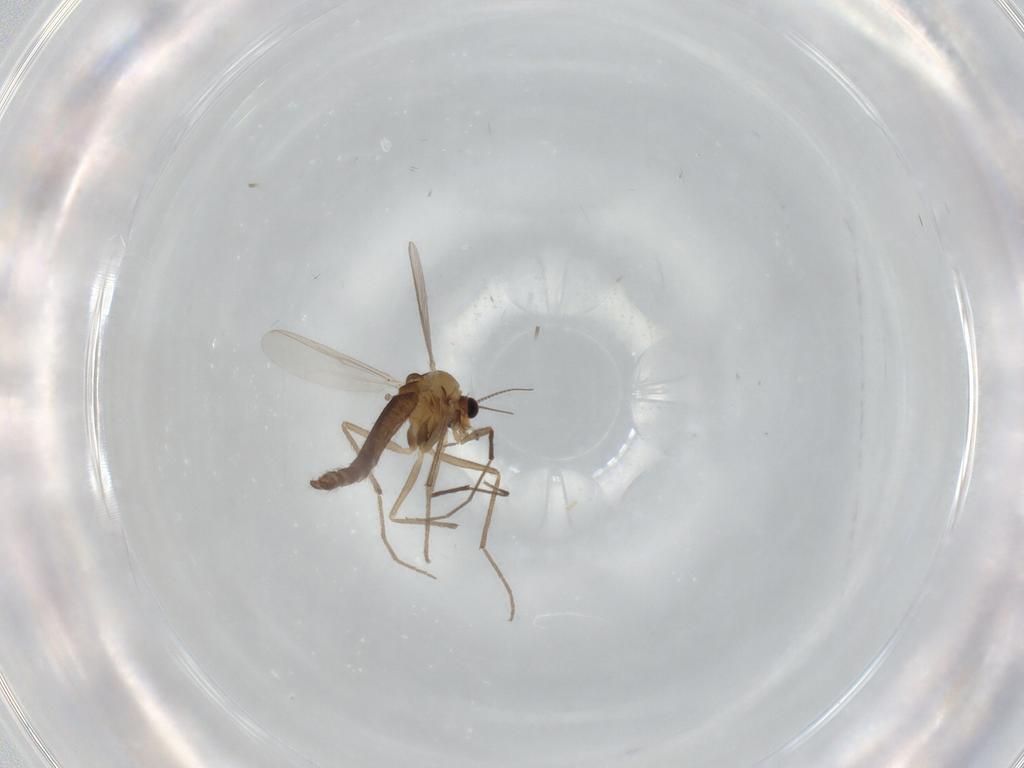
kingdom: Animalia
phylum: Arthropoda
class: Insecta
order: Diptera
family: Chironomidae
